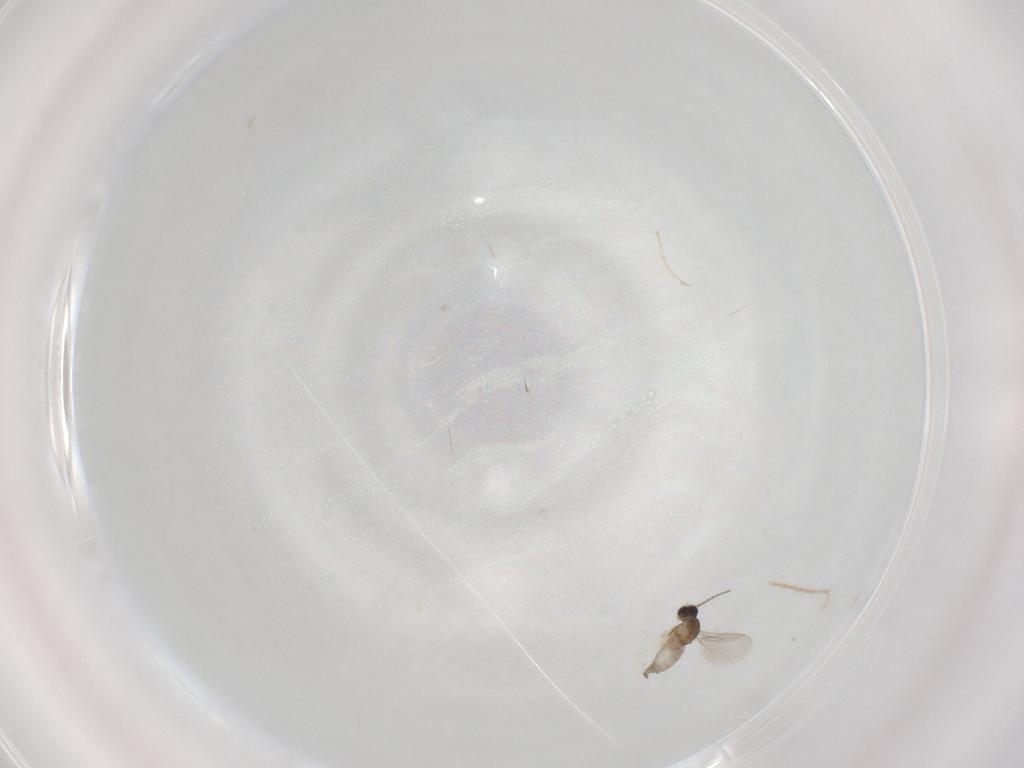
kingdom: Animalia
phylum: Arthropoda
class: Insecta
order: Diptera
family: Cecidomyiidae
